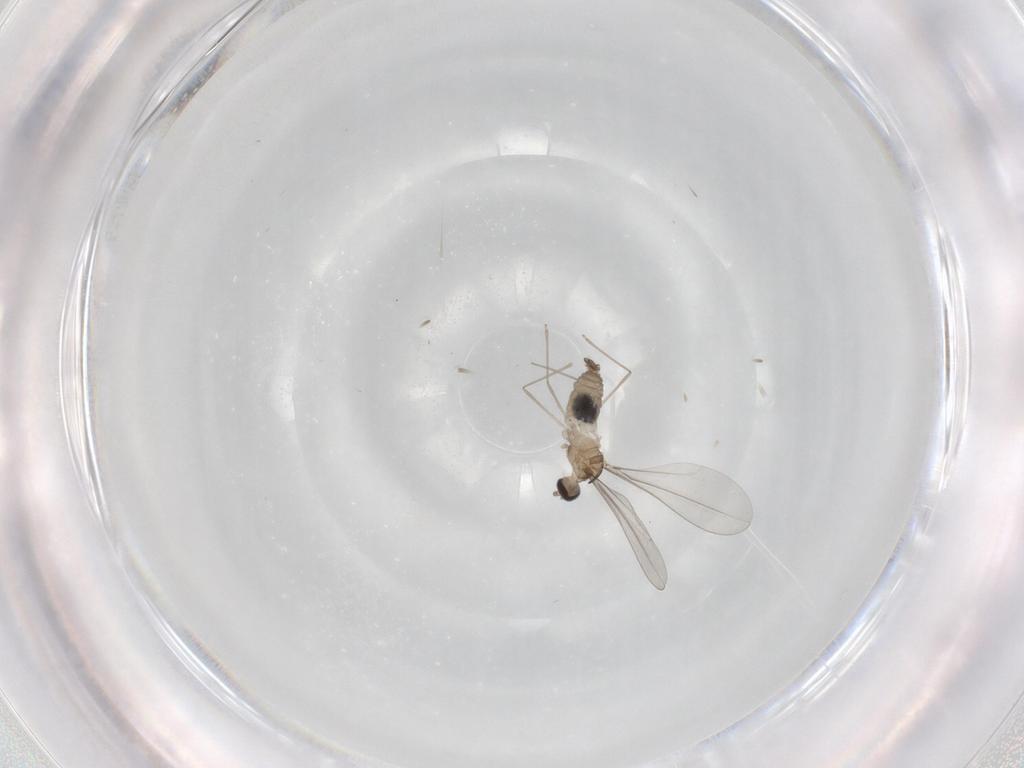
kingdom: Animalia
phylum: Arthropoda
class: Insecta
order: Diptera
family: Cecidomyiidae
